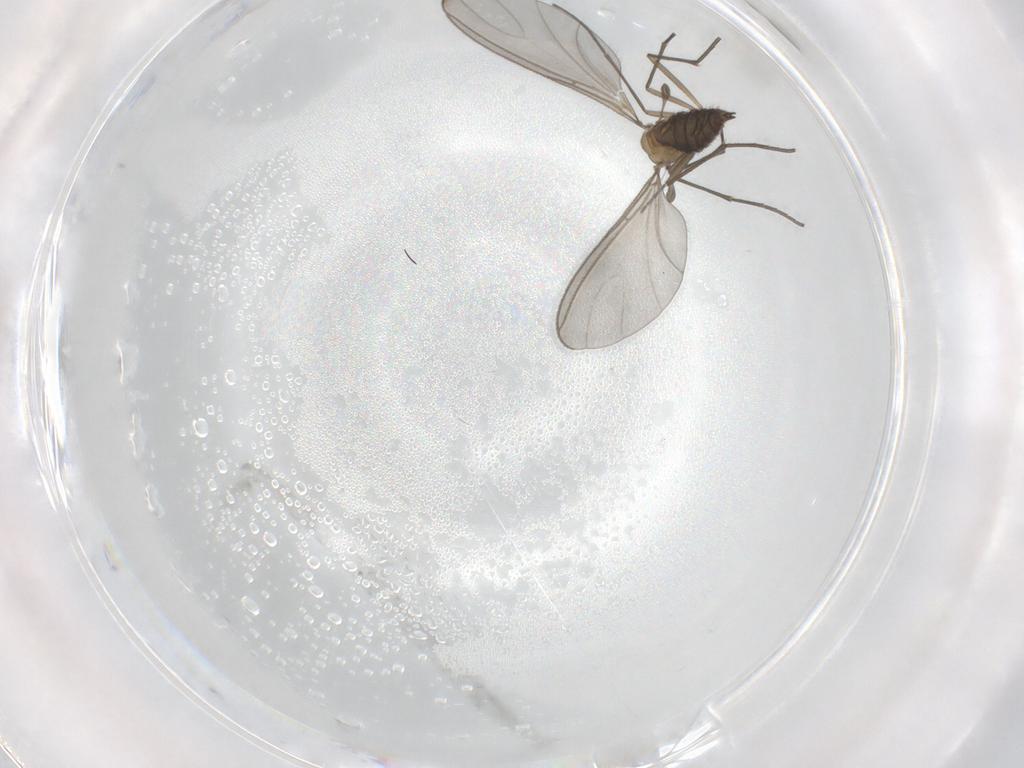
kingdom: Animalia
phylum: Arthropoda
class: Insecta
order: Diptera
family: Sciaridae
